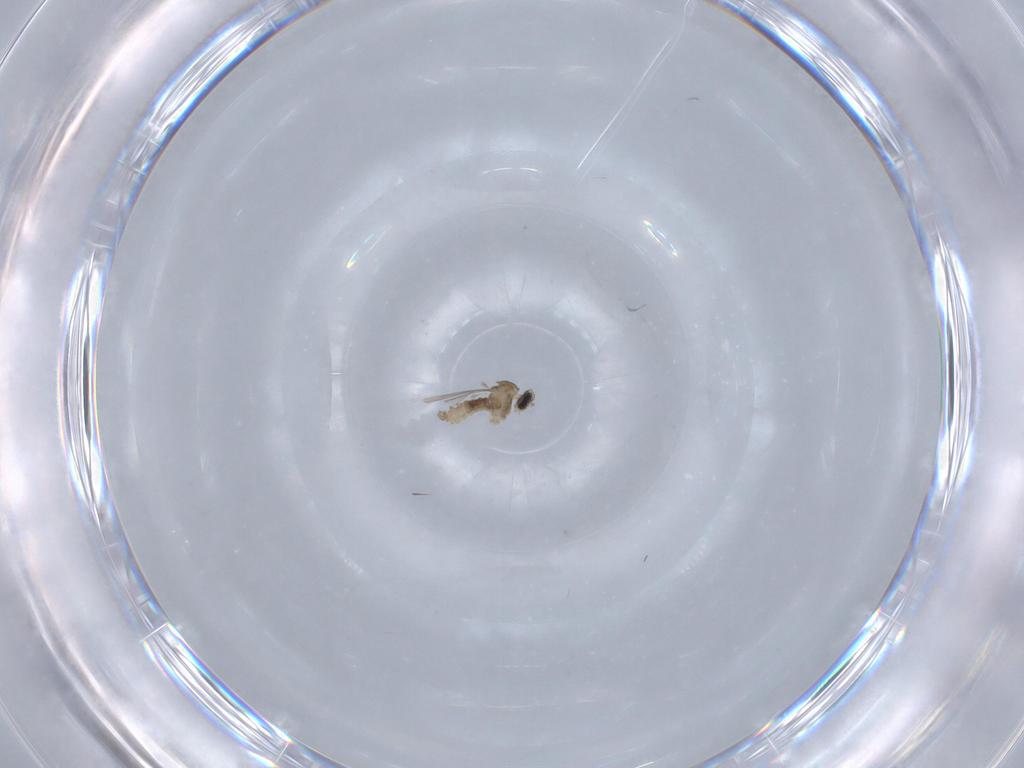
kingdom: Animalia
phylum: Arthropoda
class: Insecta
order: Diptera
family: Cecidomyiidae
